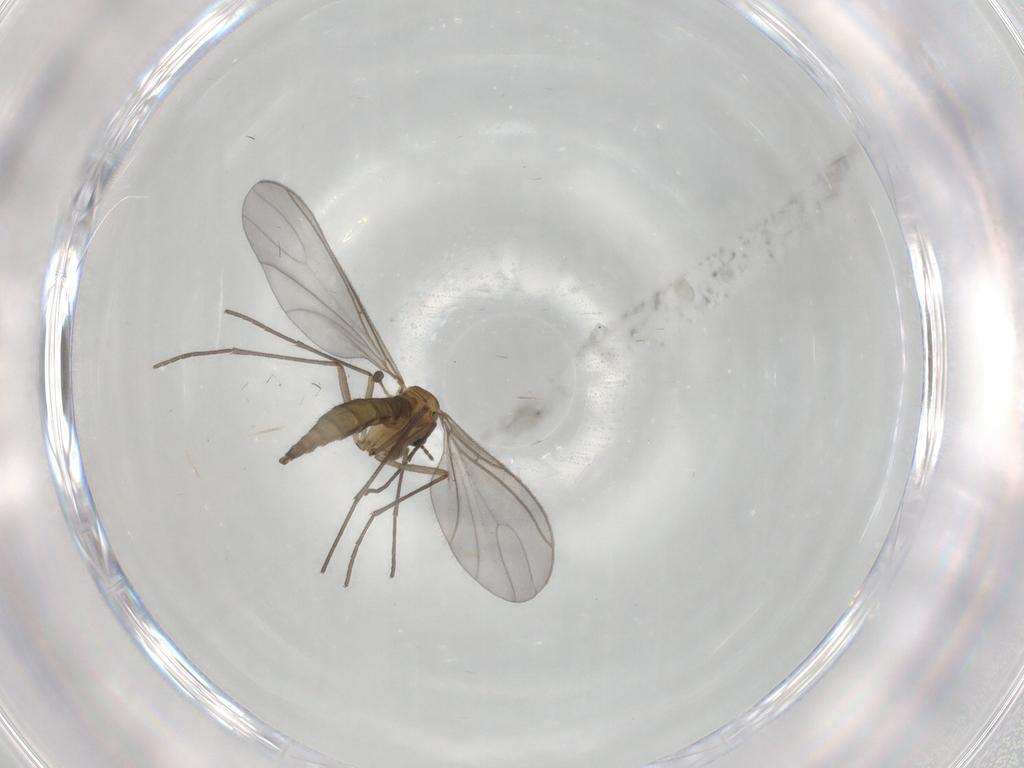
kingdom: Animalia
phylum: Arthropoda
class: Insecta
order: Diptera
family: Sciaridae
